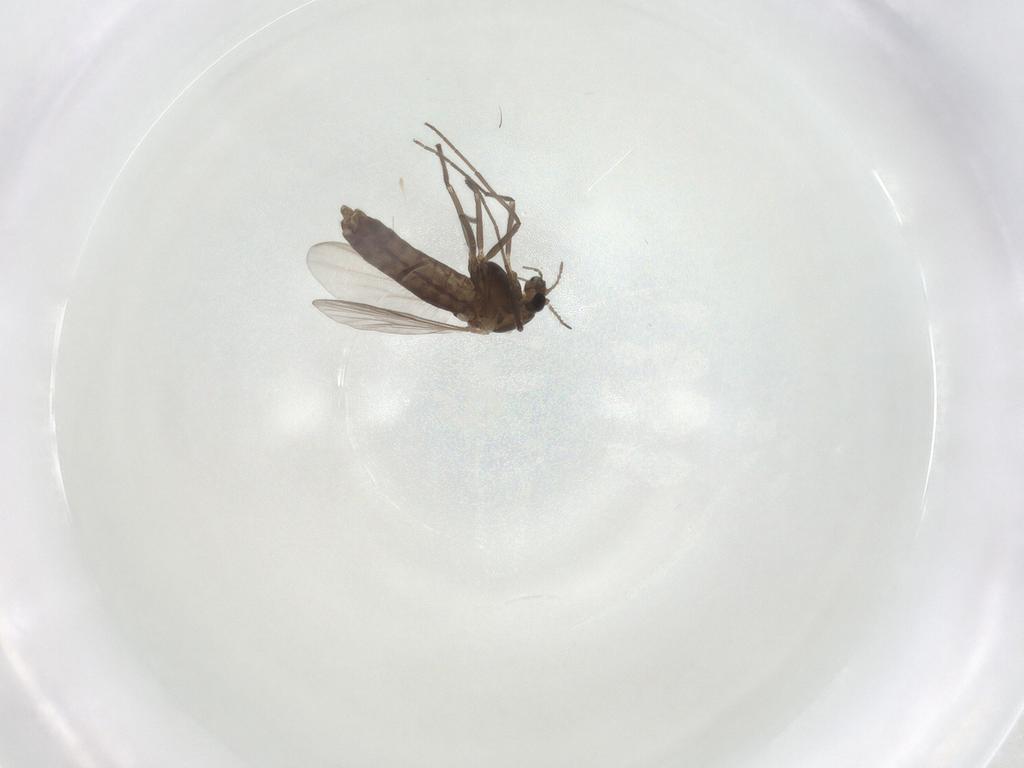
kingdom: Animalia
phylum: Arthropoda
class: Insecta
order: Diptera
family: Chironomidae
